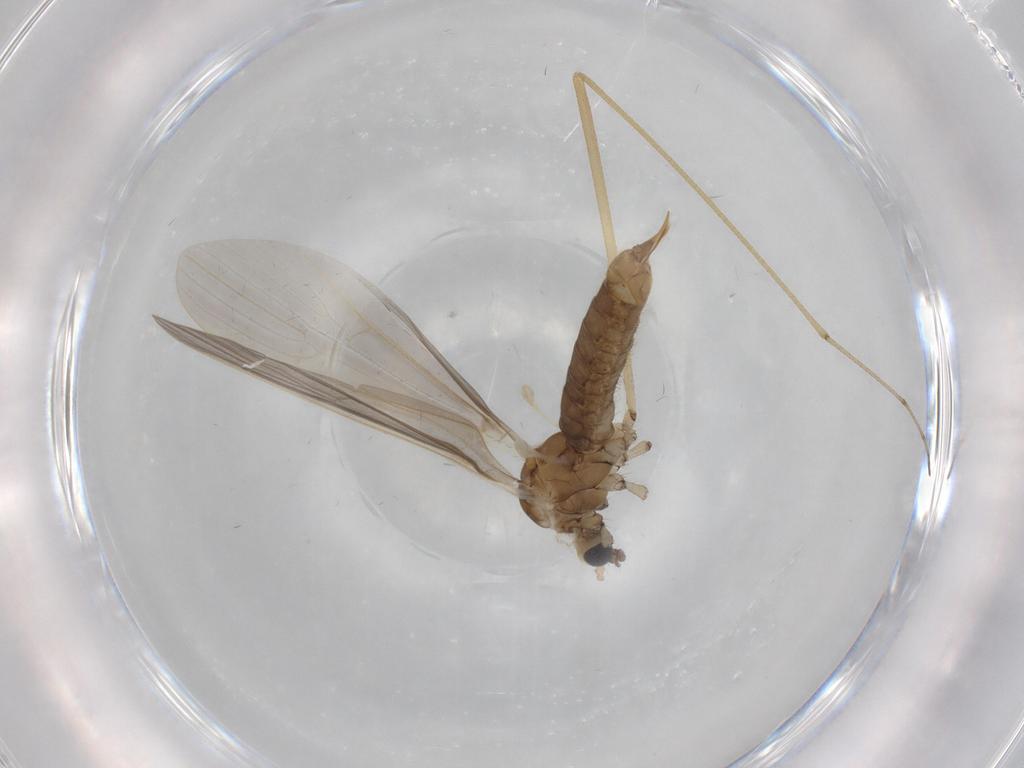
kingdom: Animalia
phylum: Arthropoda
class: Insecta
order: Diptera
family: Limoniidae
